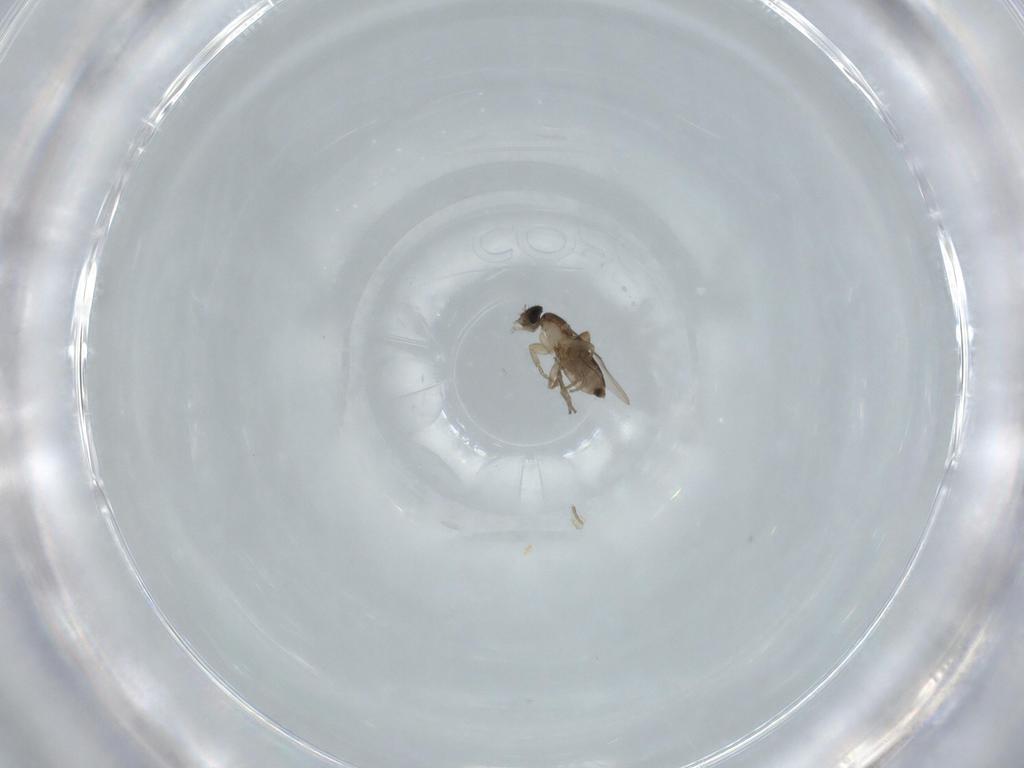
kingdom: Animalia
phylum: Arthropoda
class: Insecta
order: Diptera
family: Phoridae
